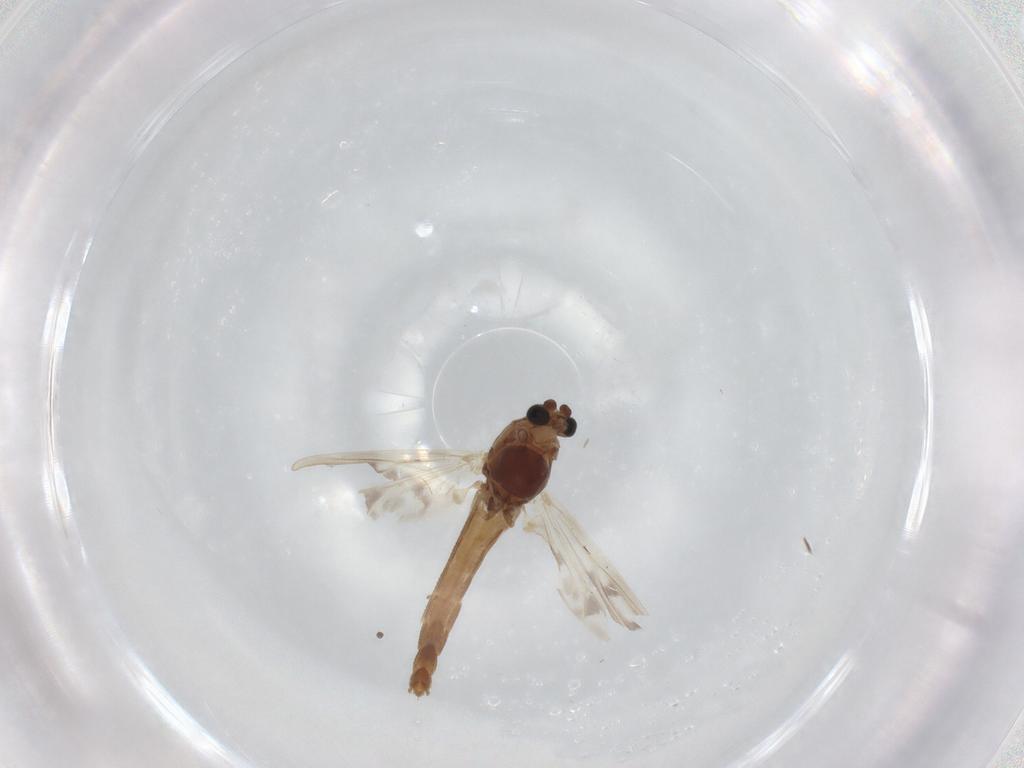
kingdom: Animalia
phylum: Arthropoda
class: Insecta
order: Diptera
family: Chironomidae
